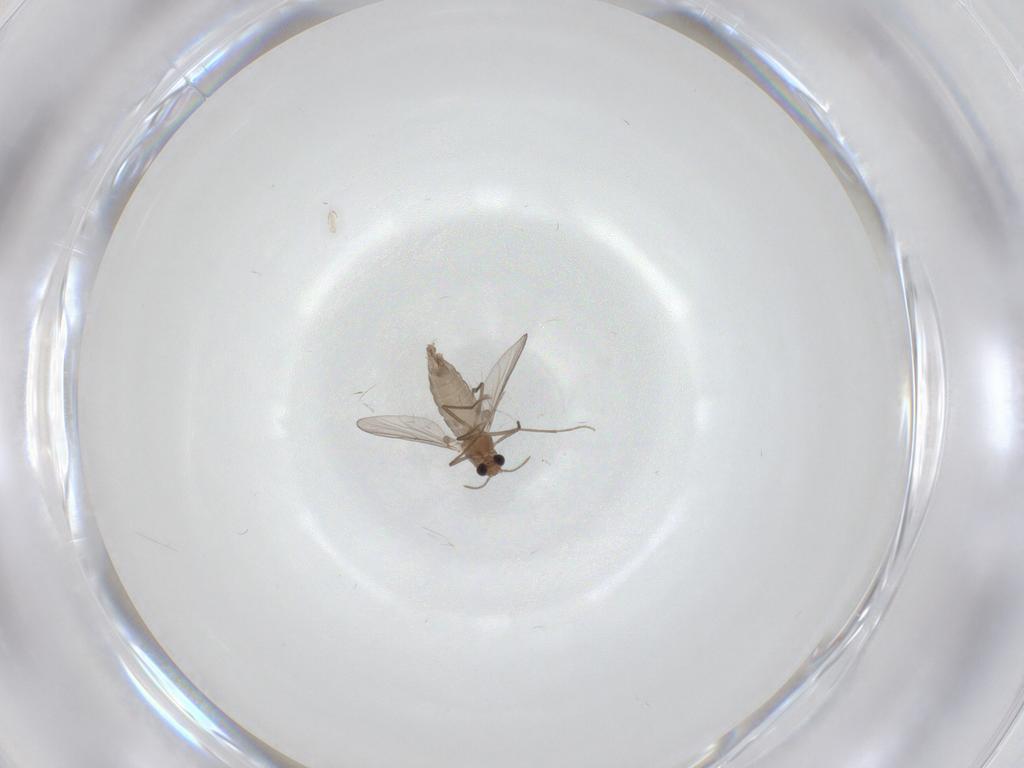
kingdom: Animalia
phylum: Arthropoda
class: Insecta
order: Diptera
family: Chironomidae
